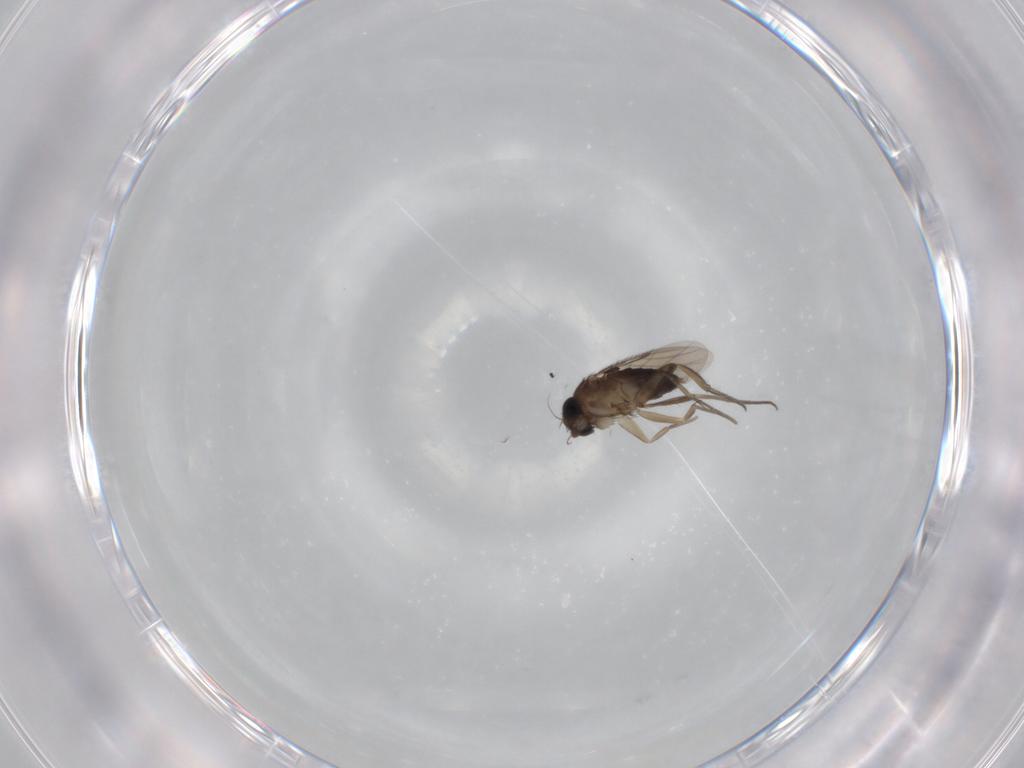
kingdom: Animalia
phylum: Arthropoda
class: Insecta
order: Diptera
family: Phoridae
